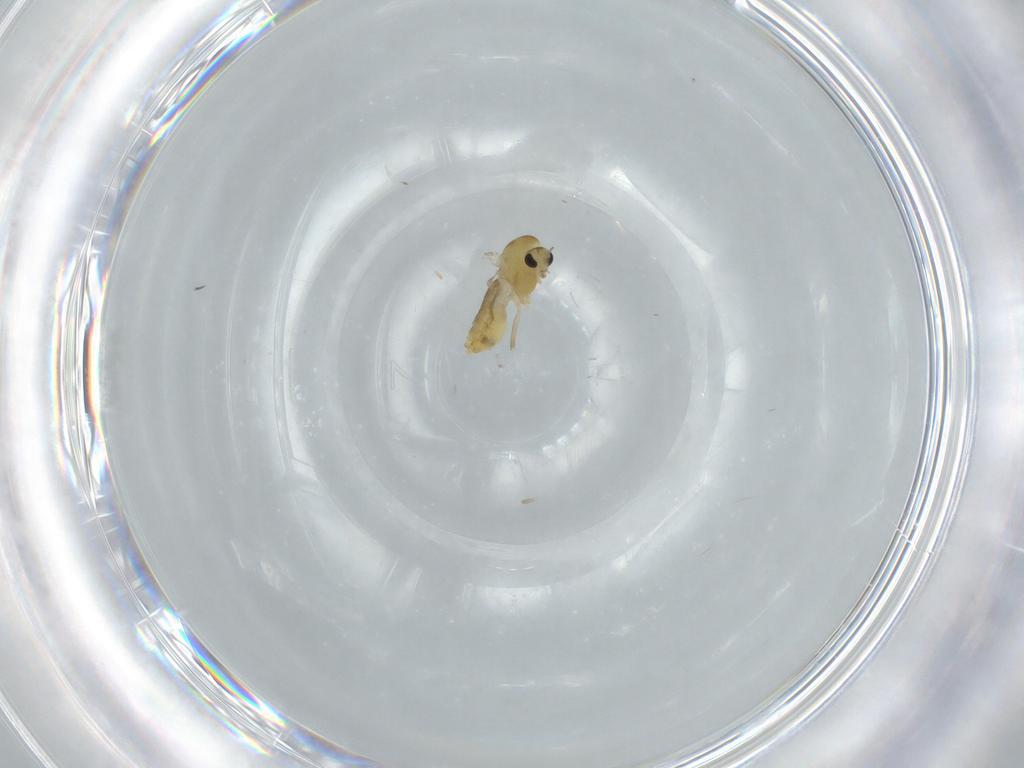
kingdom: Animalia
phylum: Arthropoda
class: Insecta
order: Diptera
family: Chironomidae
